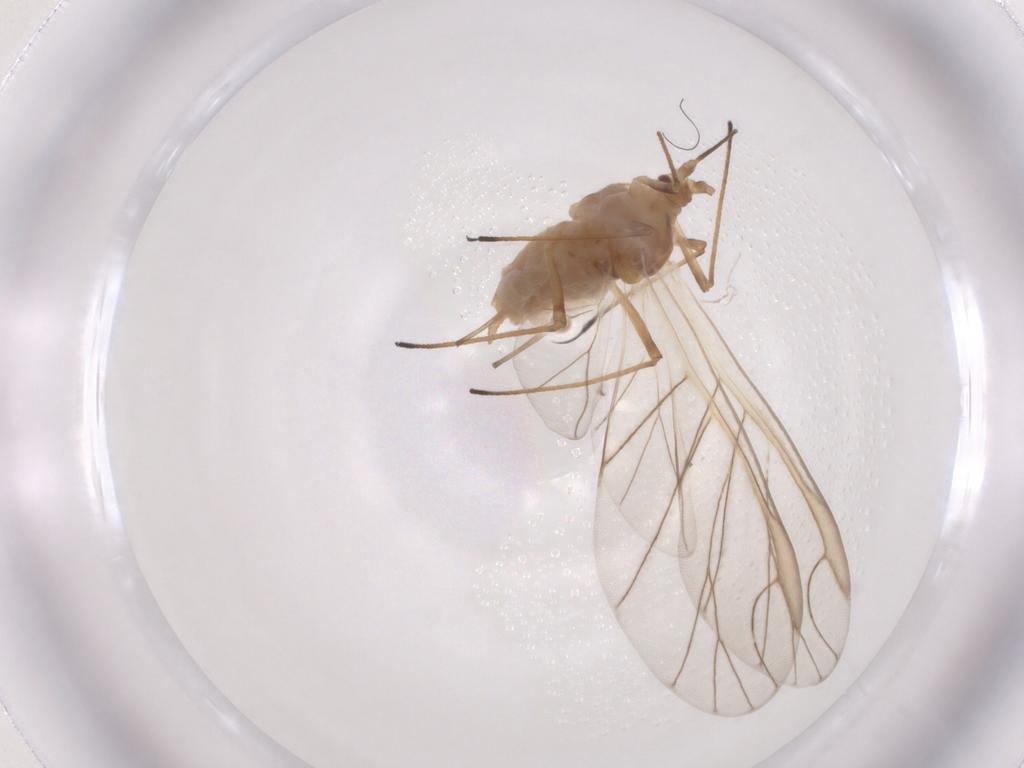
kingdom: Animalia
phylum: Arthropoda
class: Insecta
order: Hemiptera
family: Aphididae
